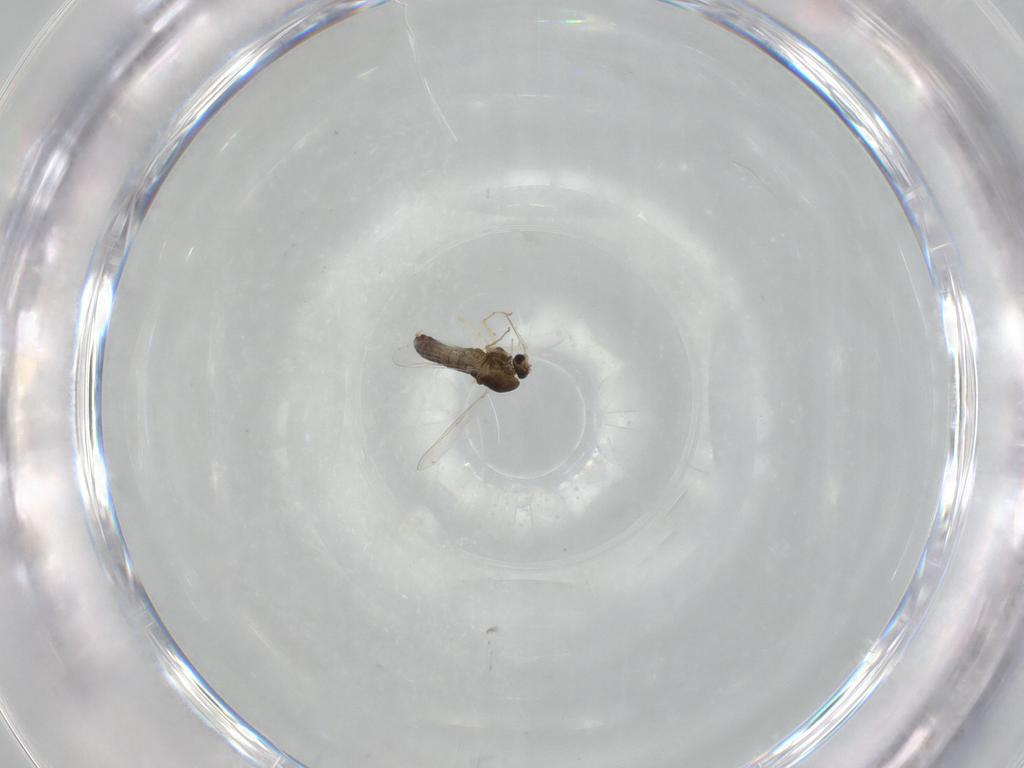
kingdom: Animalia
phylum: Arthropoda
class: Insecta
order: Diptera
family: Chironomidae
